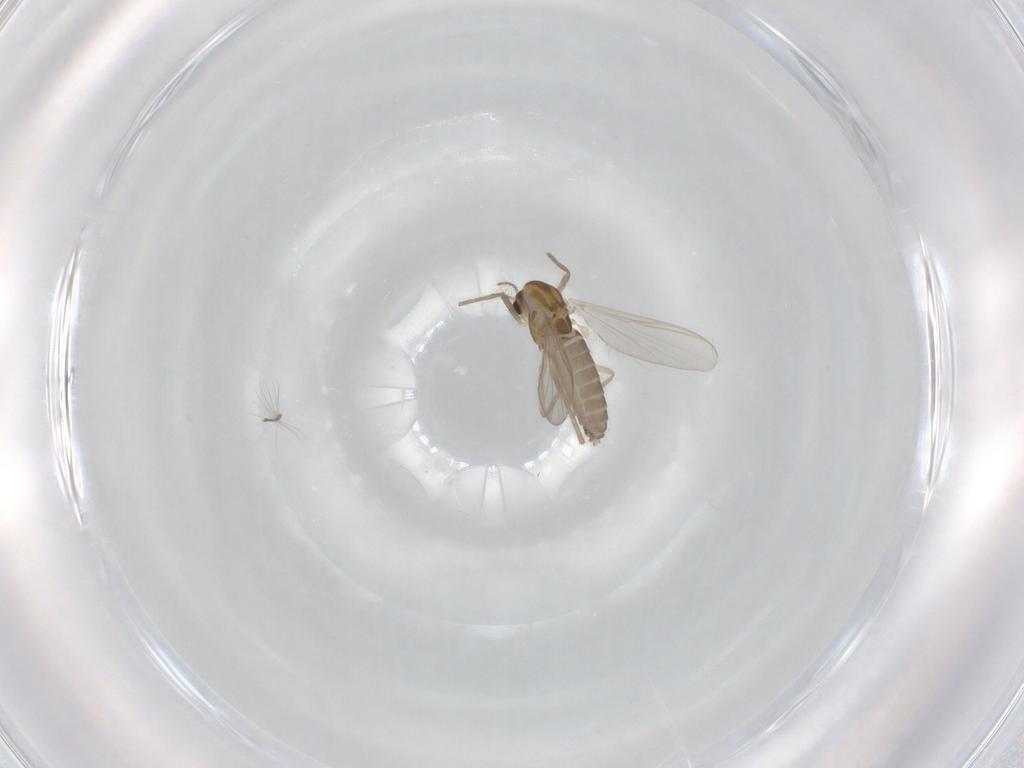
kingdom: Animalia
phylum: Arthropoda
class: Insecta
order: Diptera
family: Chironomidae
